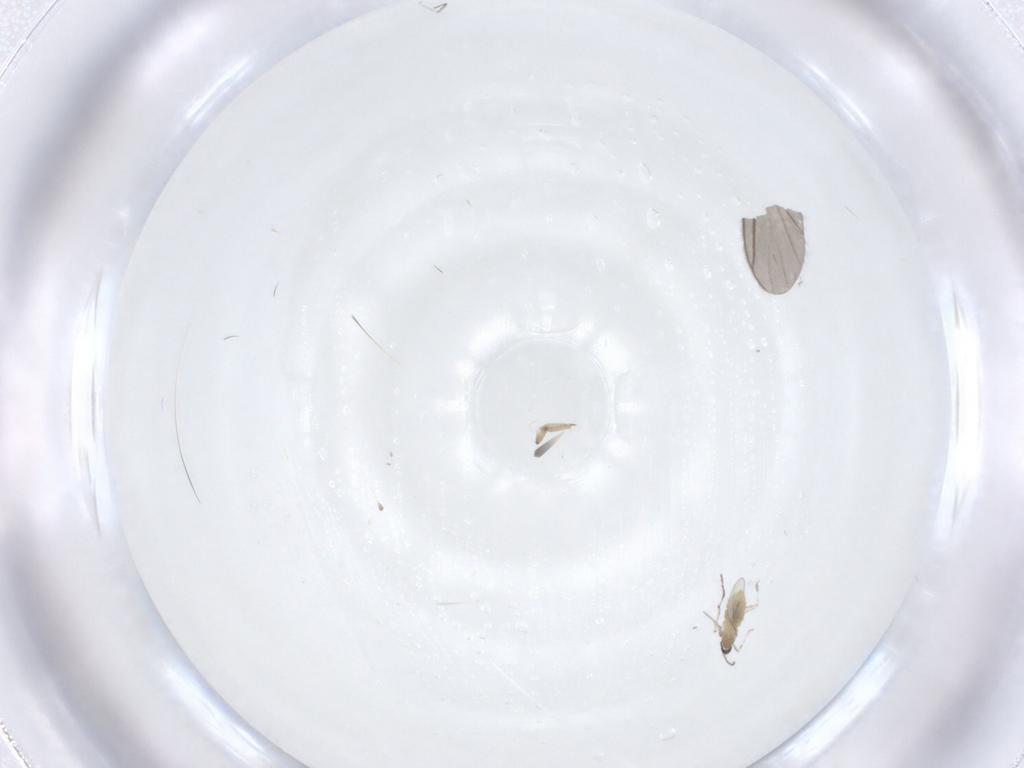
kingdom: Animalia
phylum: Arthropoda
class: Insecta
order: Diptera
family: Cecidomyiidae
